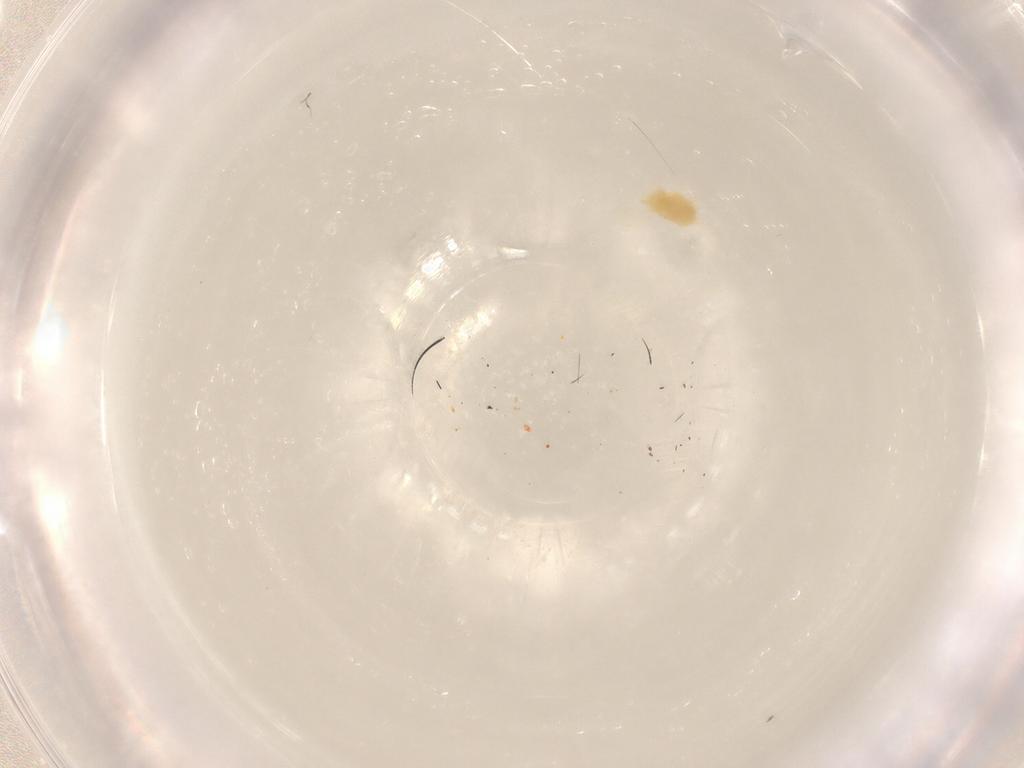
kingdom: Animalia
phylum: Arthropoda
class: Arachnida
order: Trombidiformes
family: Tetranychidae
